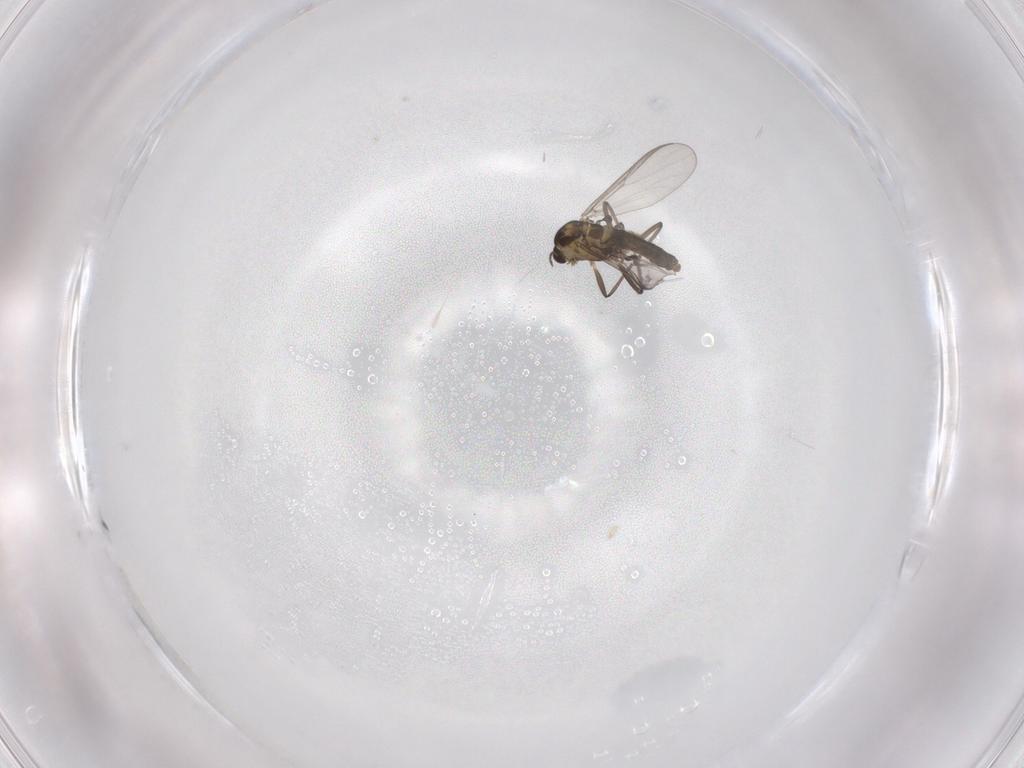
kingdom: Animalia
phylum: Arthropoda
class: Insecta
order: Diptera
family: Chironomidae
